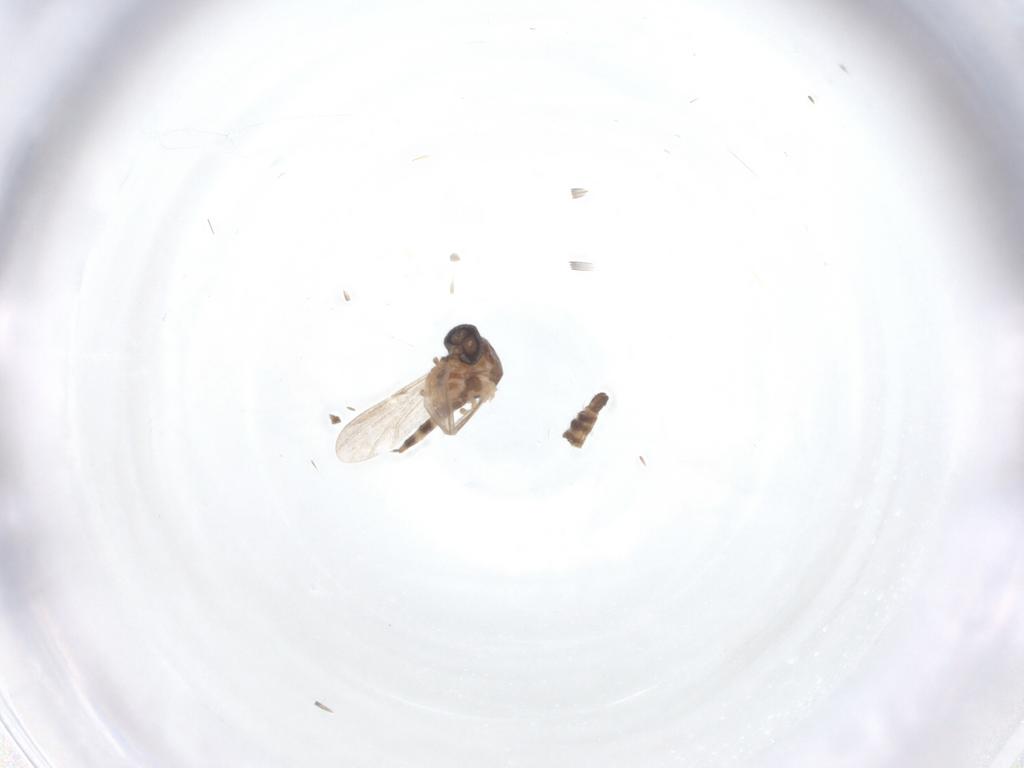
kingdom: Animalia
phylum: Arthropoda
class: Insecta
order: Diptera
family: Ceratopogonidae
